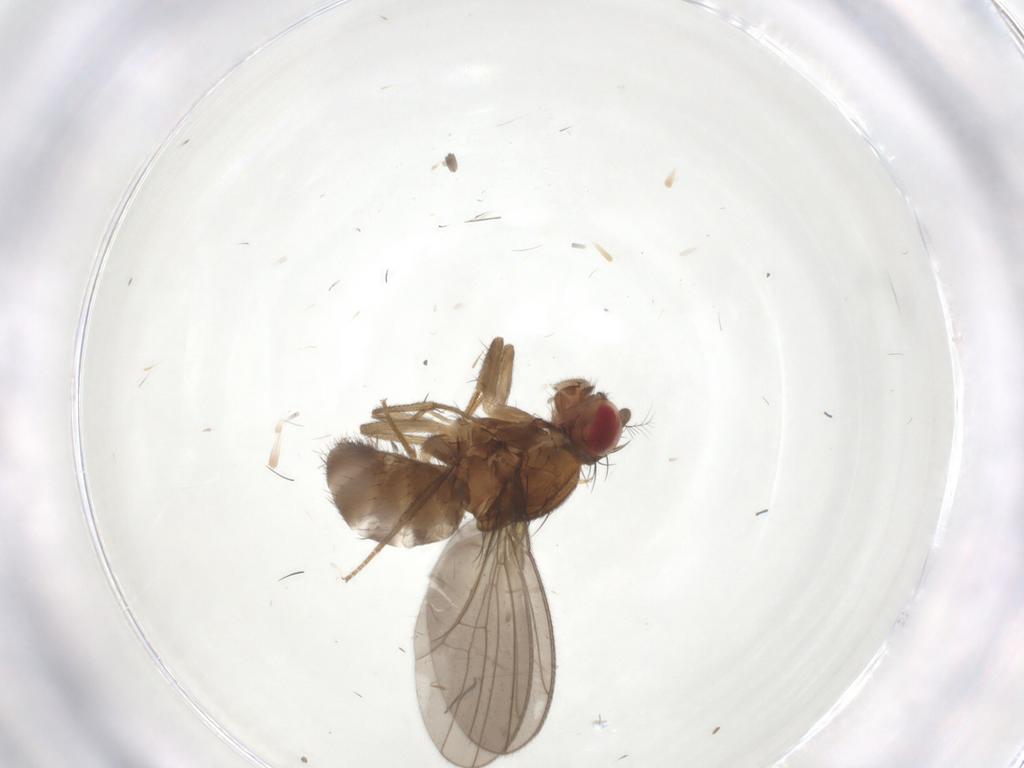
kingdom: Animalia
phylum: Arthropoda
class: Insecta
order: Diptera
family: Drosophilidae
